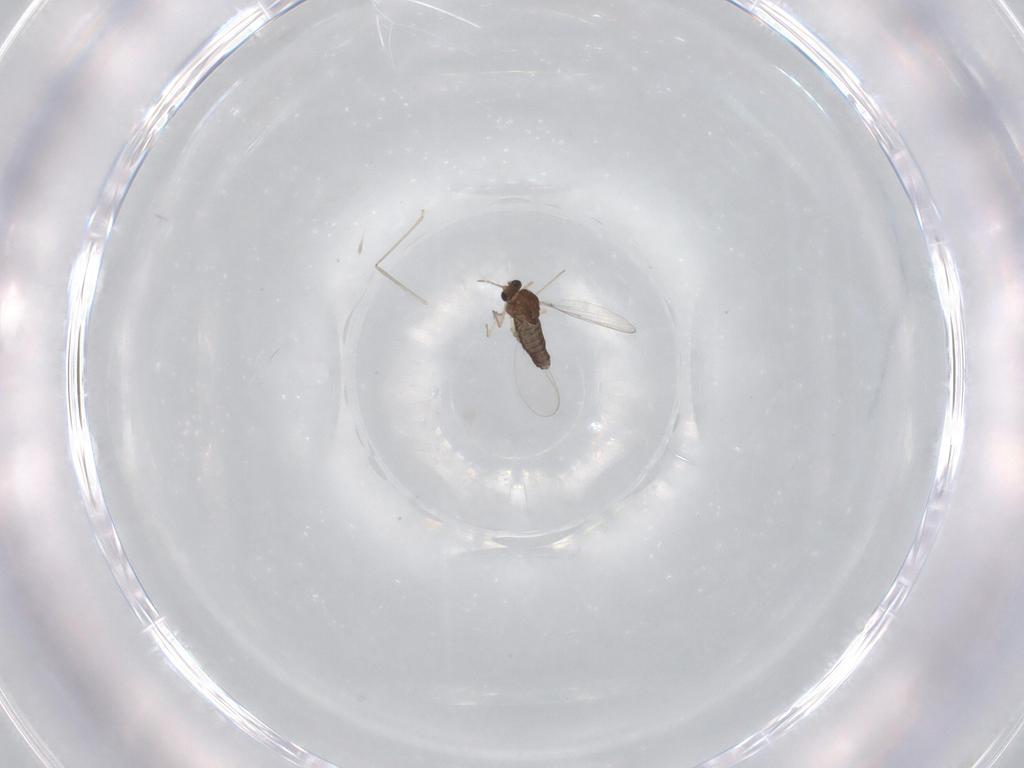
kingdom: Animalia
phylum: Arthropoda
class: Insecta
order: Diptera
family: Chironomidae
